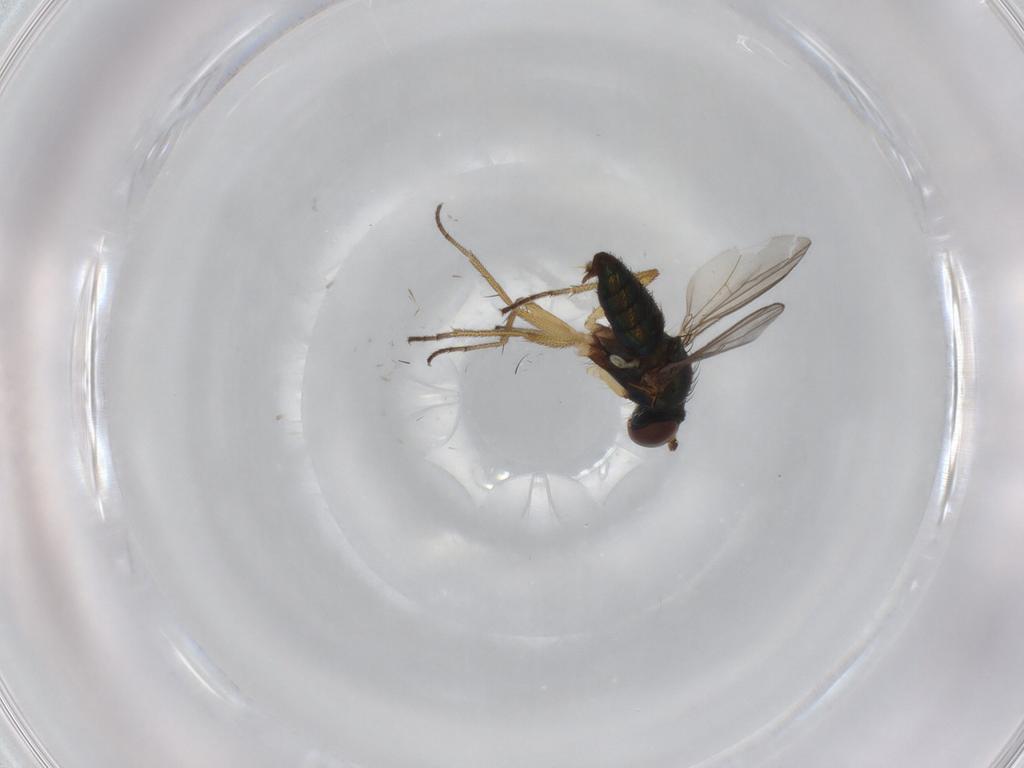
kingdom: Animalia
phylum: Arthropoda
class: Insecta
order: Diptera
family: Dolichopodidae
